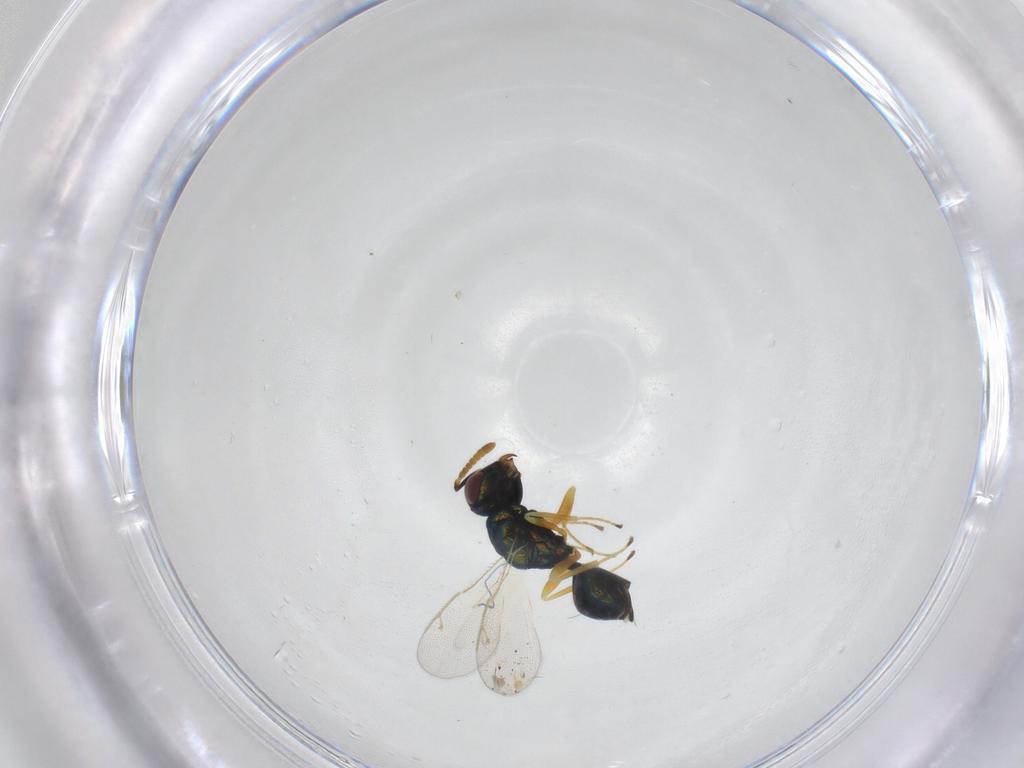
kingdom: Animalia
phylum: Arthropoda
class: Insecta
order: Hymenoptera
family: Pteromalidae
